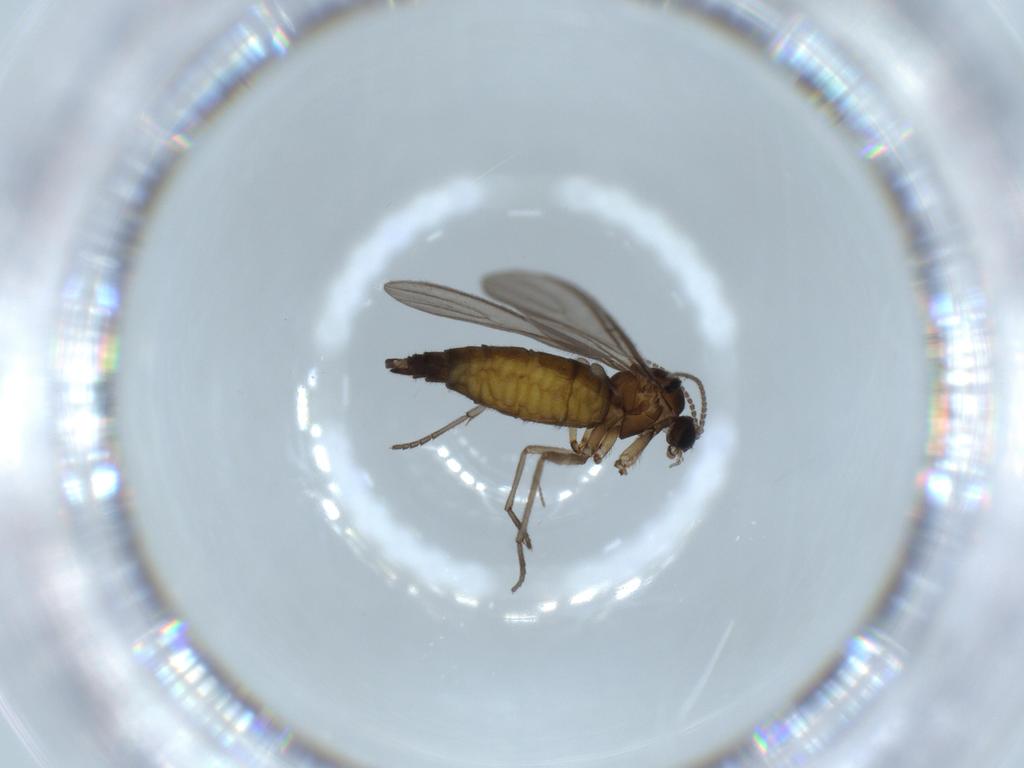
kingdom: Animalia
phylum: Arthropoda
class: Insecta
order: Diptera
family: Sciaridae
